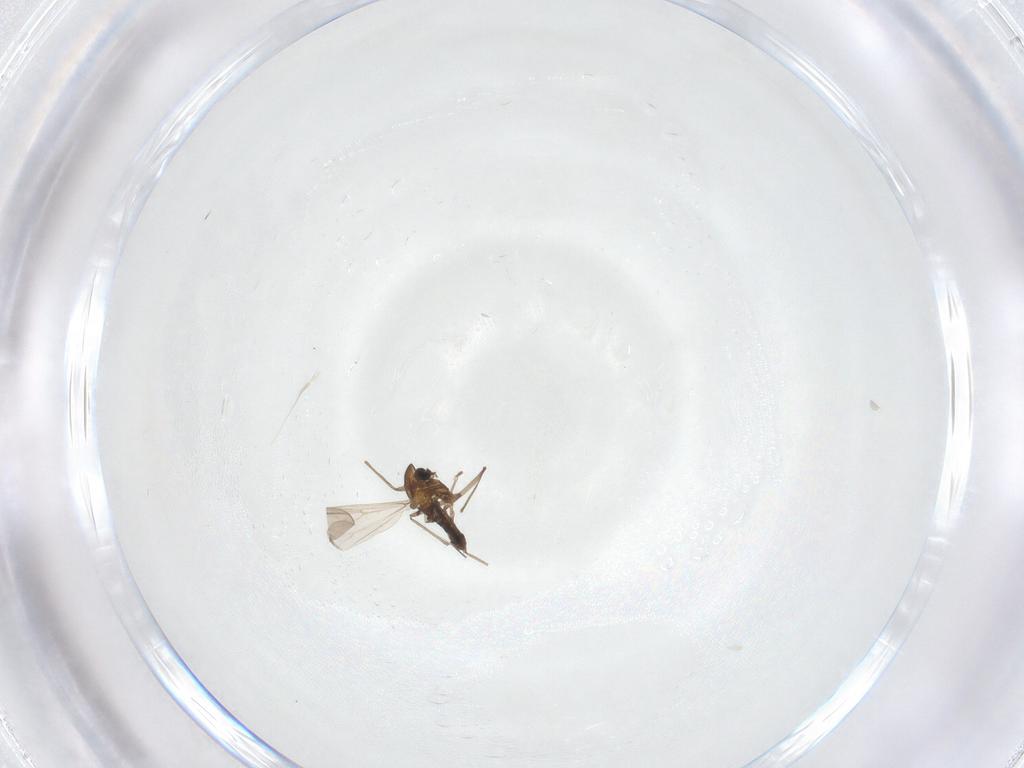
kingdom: Animalia
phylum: Arthropoda
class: Insecta
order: Diptera
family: Chironomidae
